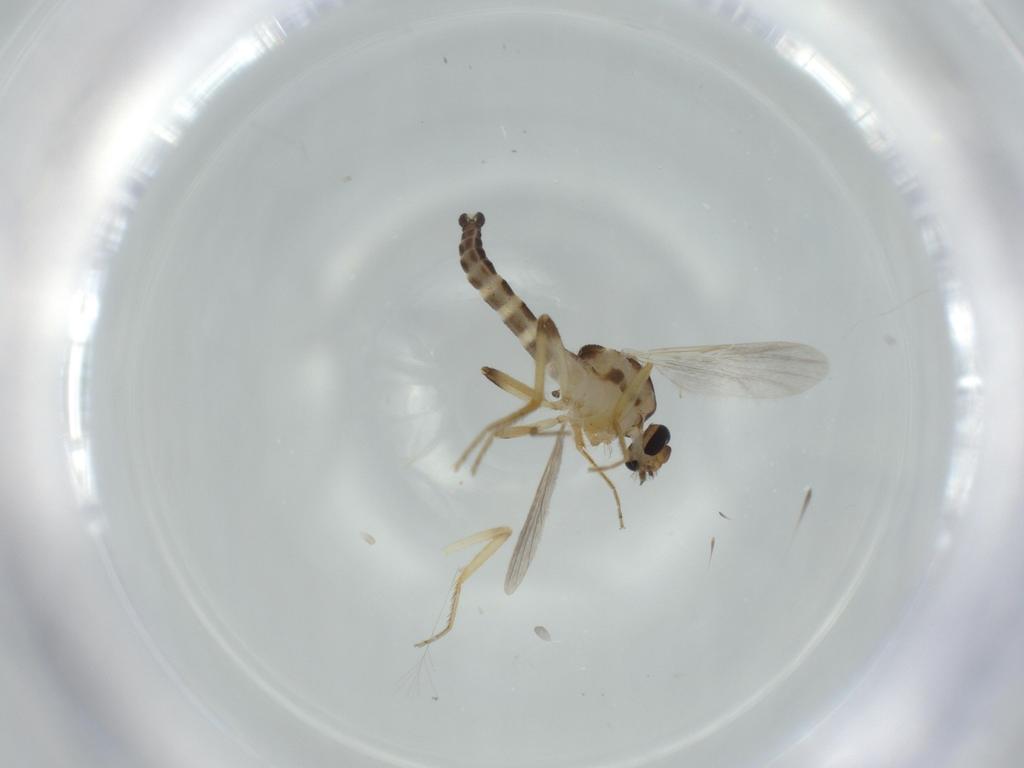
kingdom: Animalia
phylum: Arthropoda
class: Insecta
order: Diptera
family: Ceratopogonidae
